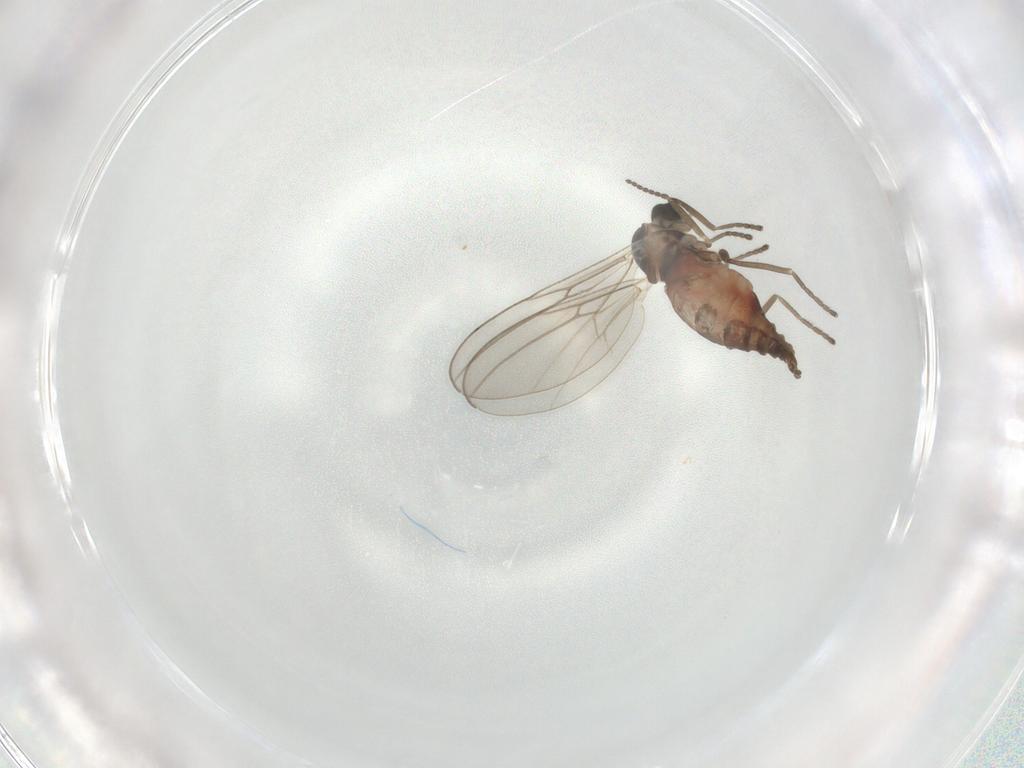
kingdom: Animalia
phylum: Arthropoda
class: Insecta
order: Diptera
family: Cecidomyiidae
